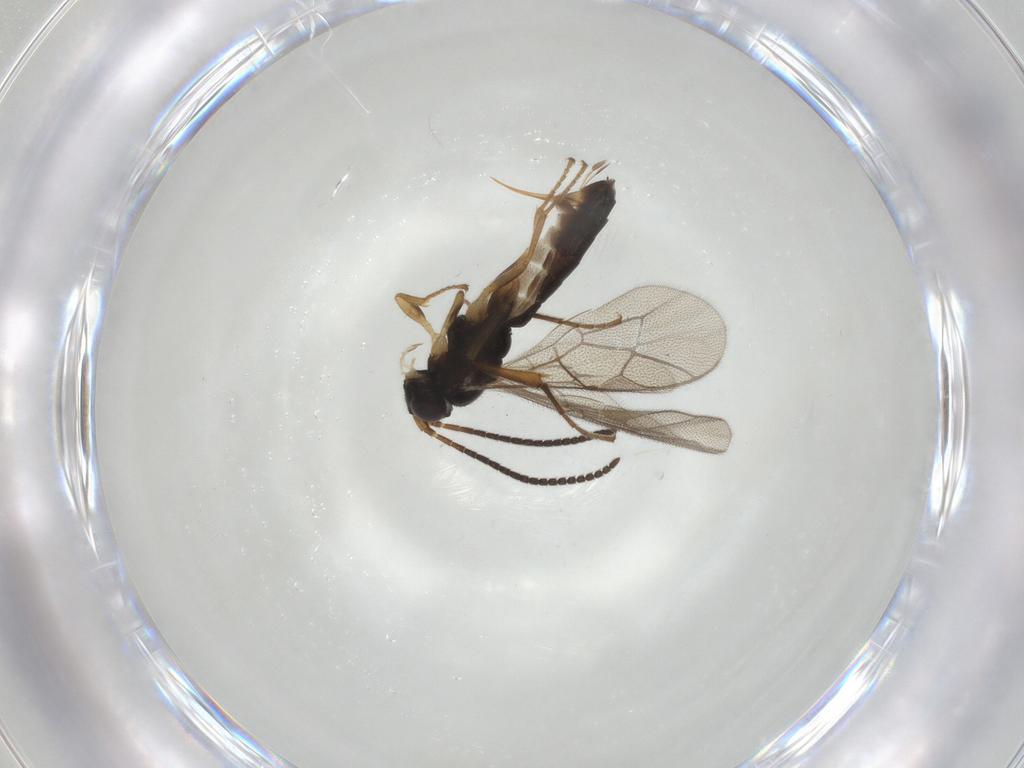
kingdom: Animalia
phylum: Arthropoda
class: Insecta
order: Hymenoptera
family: Ichneumonidae
